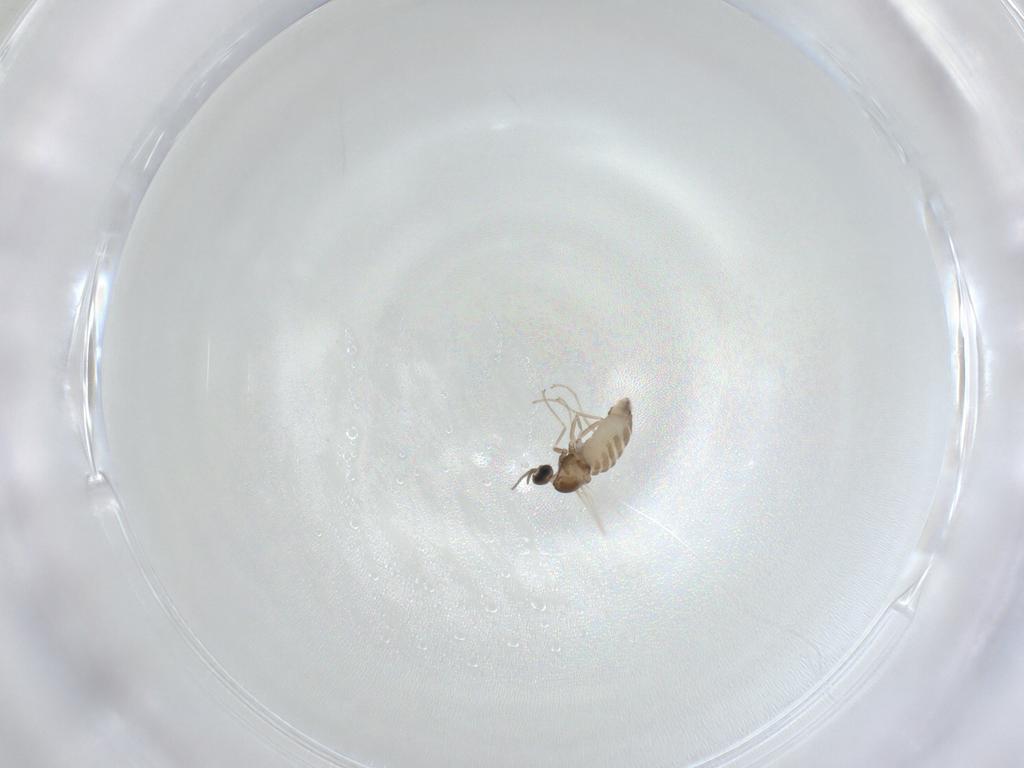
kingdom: Animalia
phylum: Arthropoda
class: Insecta
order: Diptera
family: Cecidomyiidae
